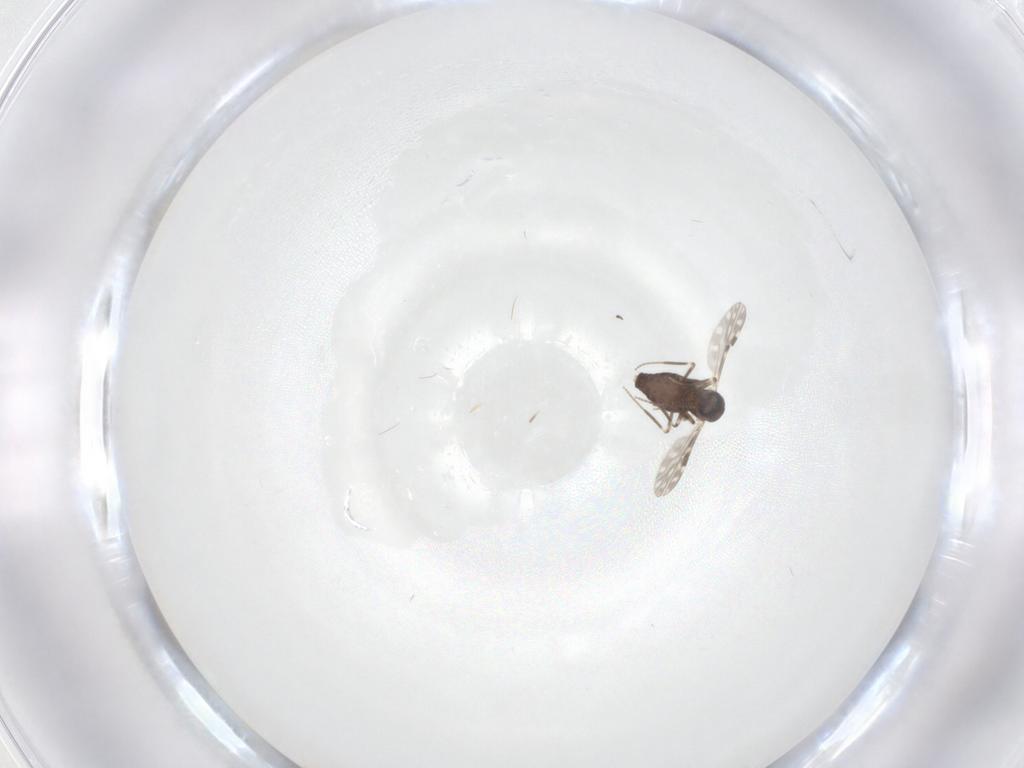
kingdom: Animalia
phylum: Arthropoda
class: Insecta
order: Diptera
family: Ceratopogonidae
